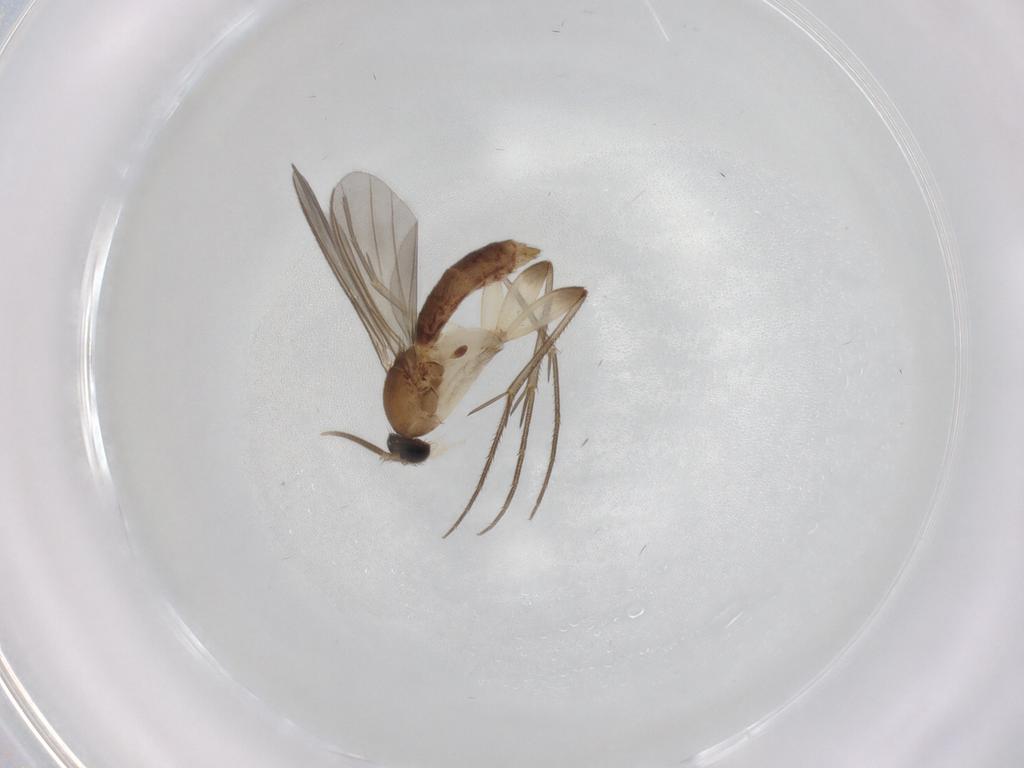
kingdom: Animalia
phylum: Arthropoda
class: Insecta
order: Diptera
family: Mycetophilidae
